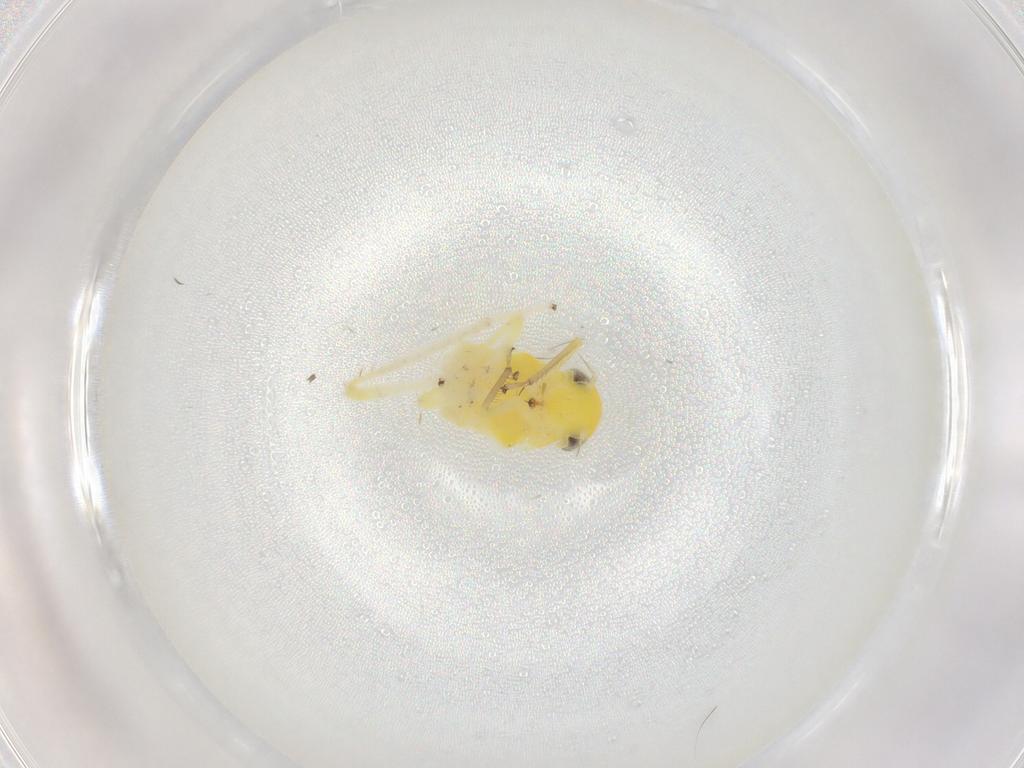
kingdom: Animalia
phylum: Arthropoda
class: Insecta
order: Hemiptera
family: Cicadellidae
